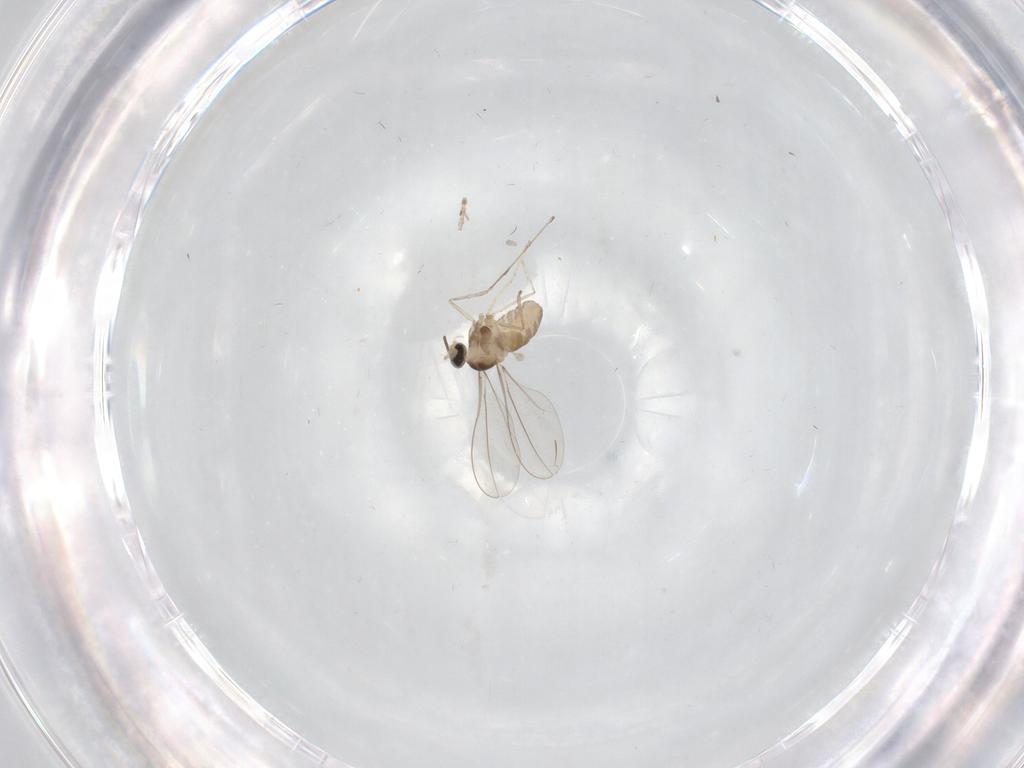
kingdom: Animalia
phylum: Arthropoda
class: Insecta
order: Diptera
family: Cecidomyiidae
